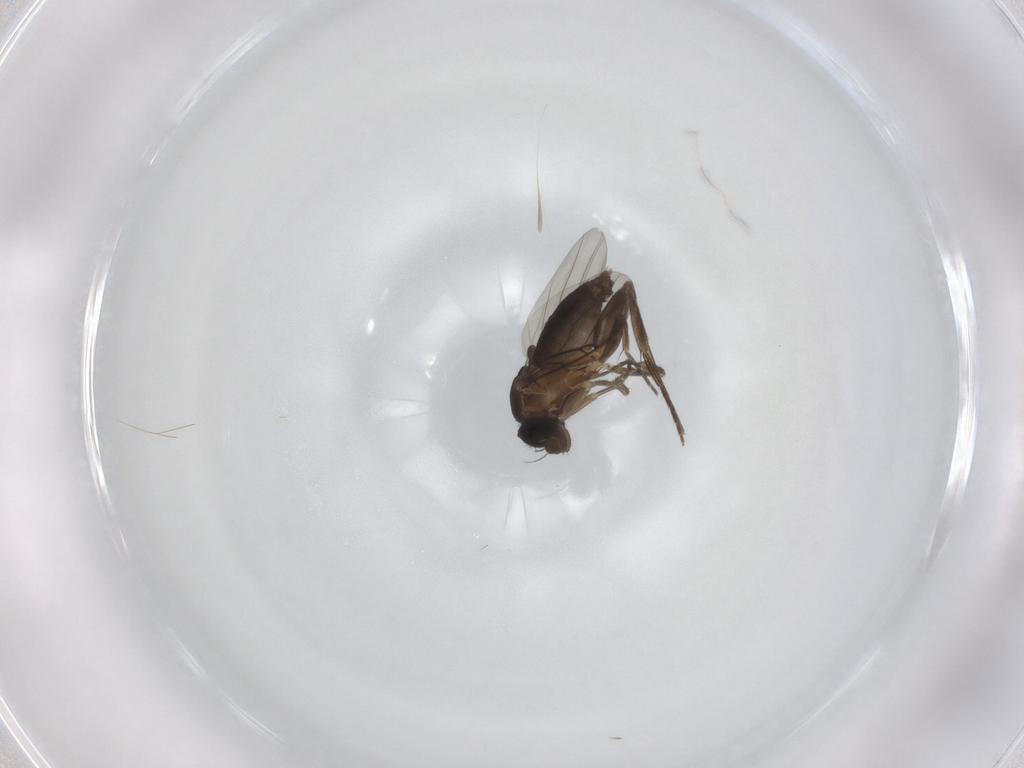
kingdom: Animalia
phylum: Arthropoda
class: Insecta
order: Diptera
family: Phoridae
